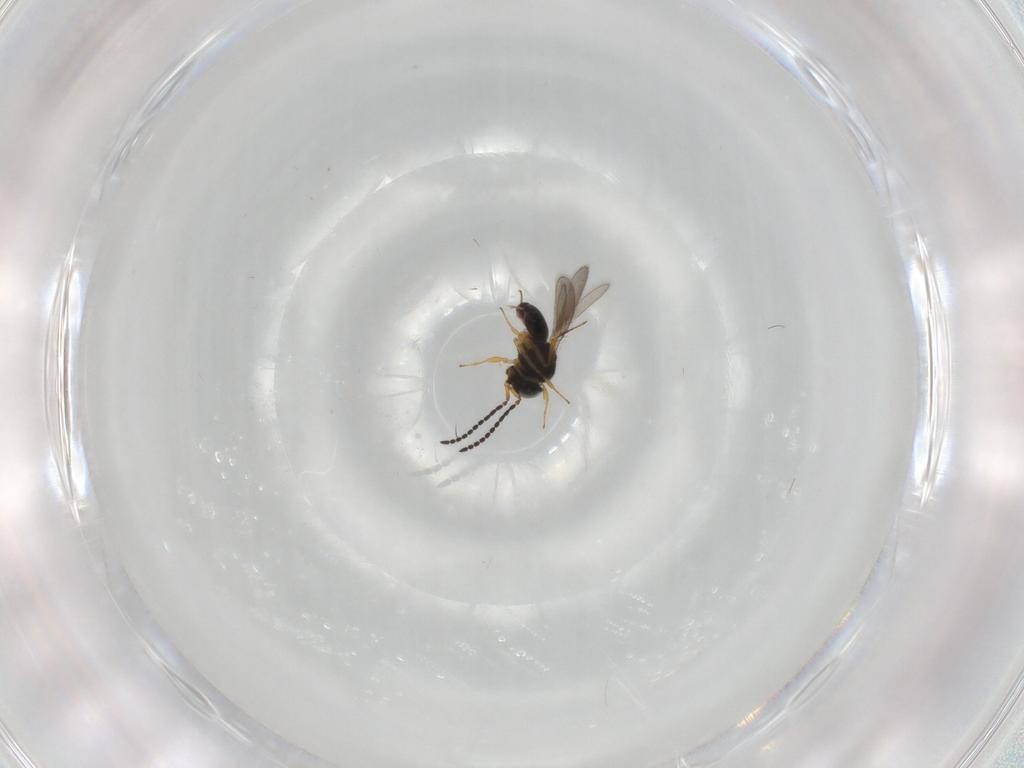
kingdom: Animalia
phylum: Arthropoda
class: Insecta
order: Hymenoptera
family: Scelionidae
